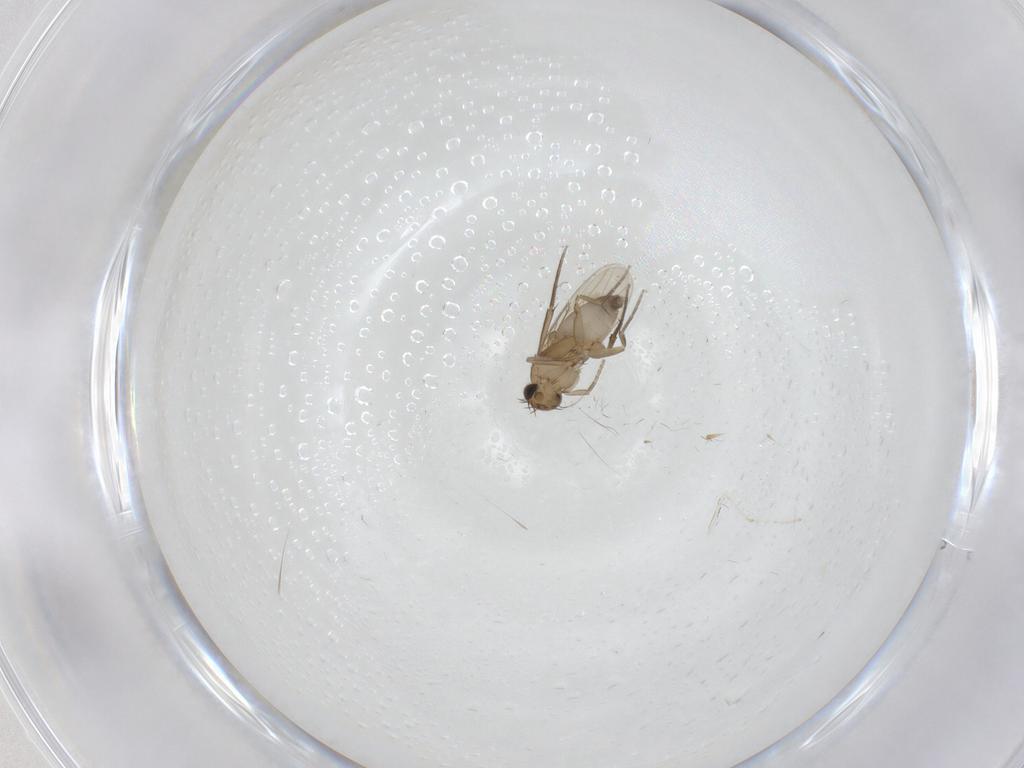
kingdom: Animalia
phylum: Arthropoda
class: Insecta
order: Diptera
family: Phoridae
